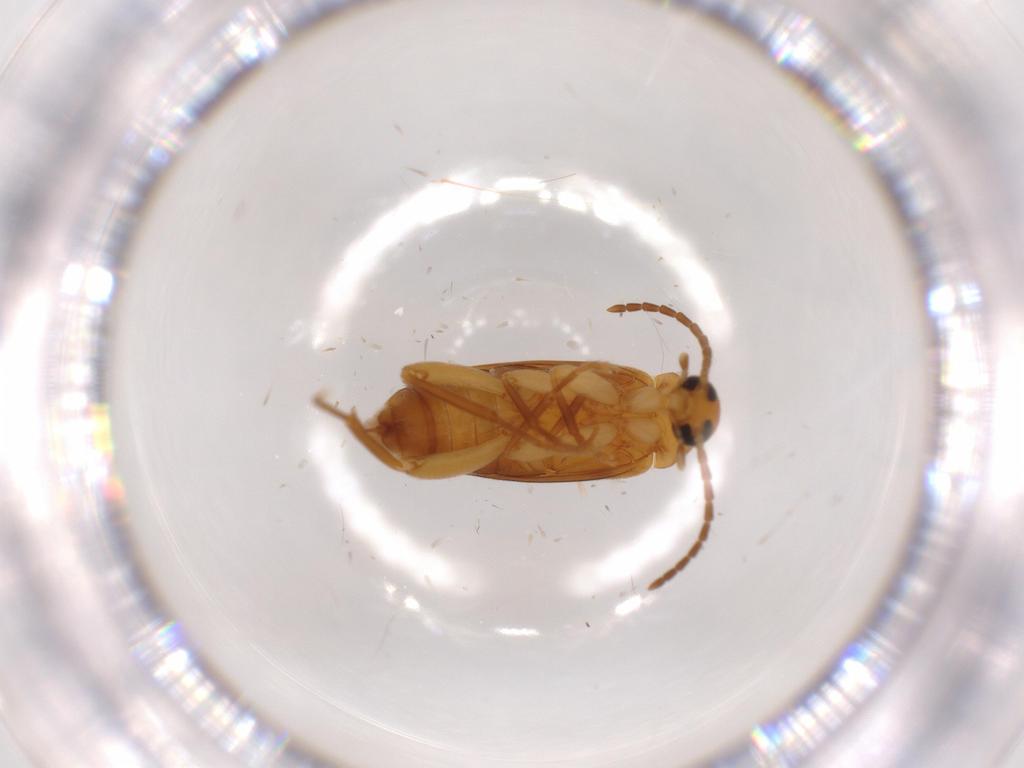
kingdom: Animalia
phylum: Arthropoda
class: Insecta
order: Coleoptera
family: Scraptiidae
